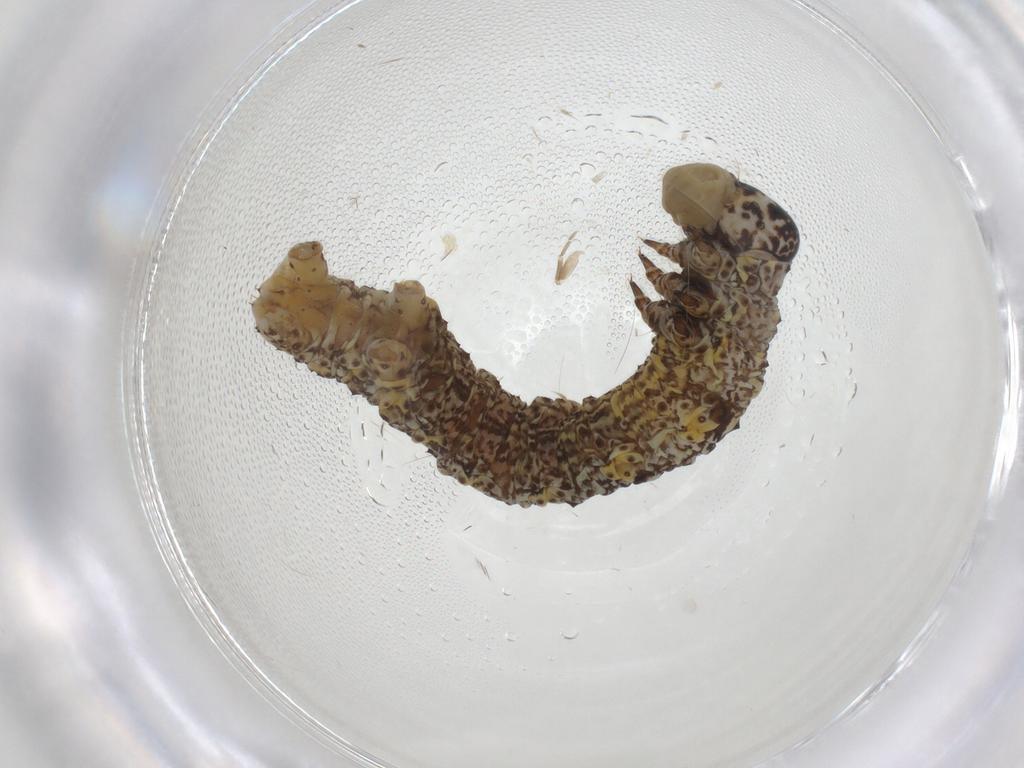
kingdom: Animalia
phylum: Arthropoda
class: Insecta
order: Lepidoptera
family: Geometridae
